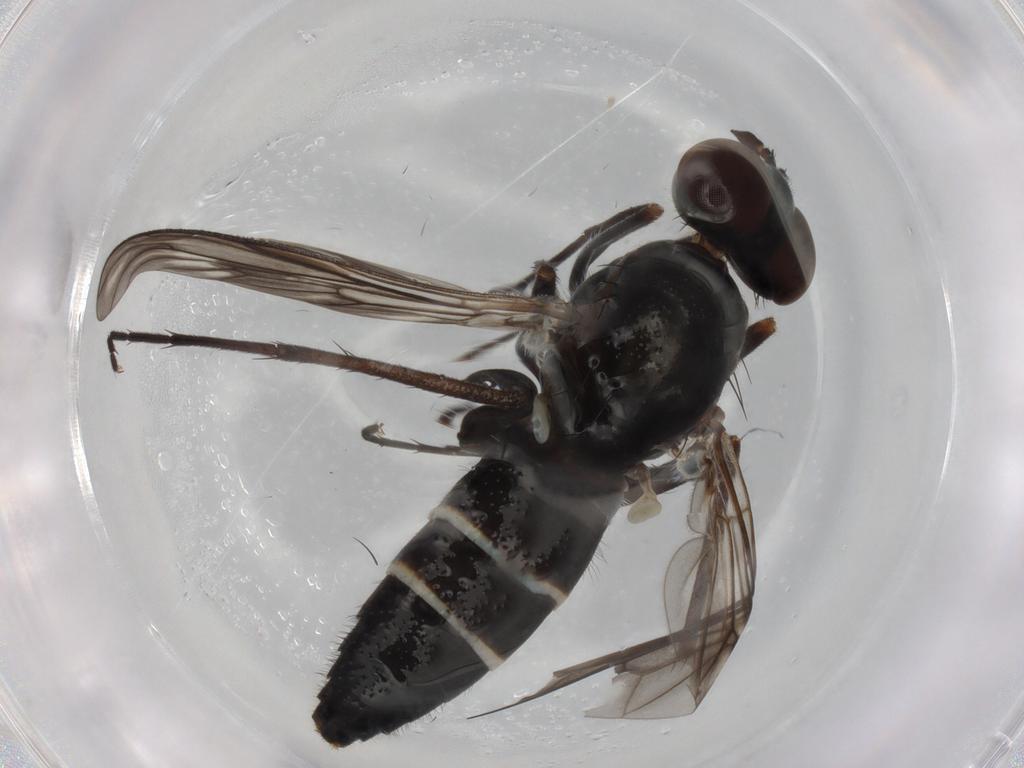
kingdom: Animalia
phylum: Arthropoda
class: Insecta
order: Diptera
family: Therevidae
